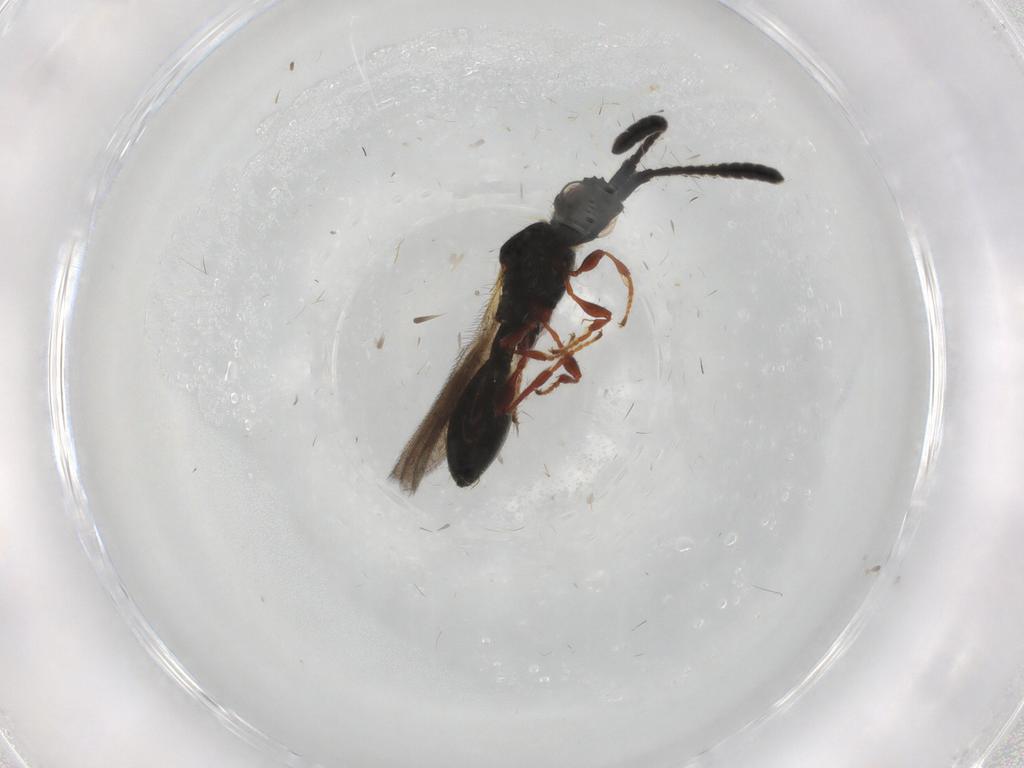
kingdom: Animalia
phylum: Arthropoda
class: Insecta
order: Hymenoptera
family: Diapriidae
